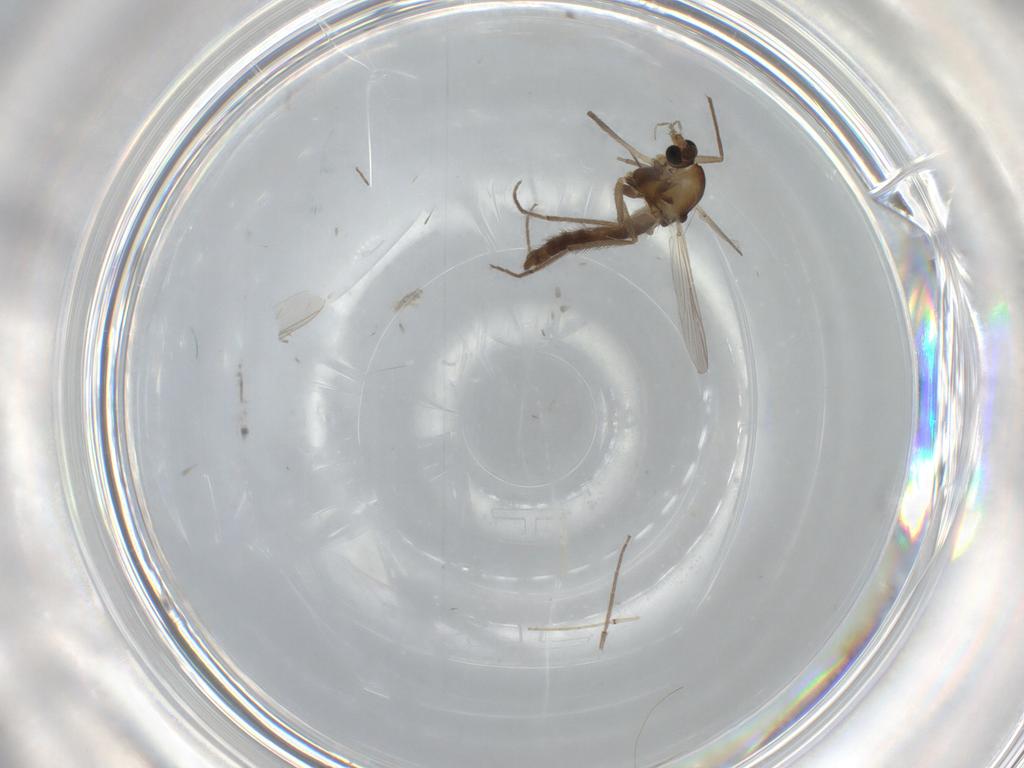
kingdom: Animalia
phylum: Arthropoda
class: Insecta
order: Diptera
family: Chironomidae
